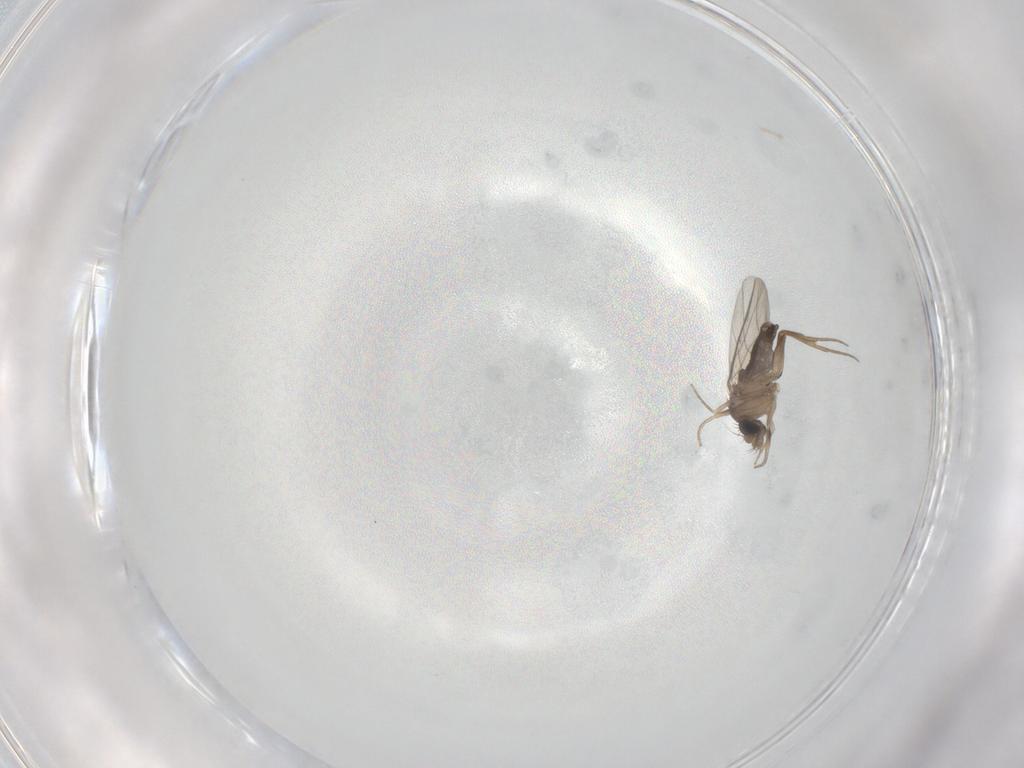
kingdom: Animalia
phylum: Arthropoda
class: Insecta
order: Diptera
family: Phoridae
